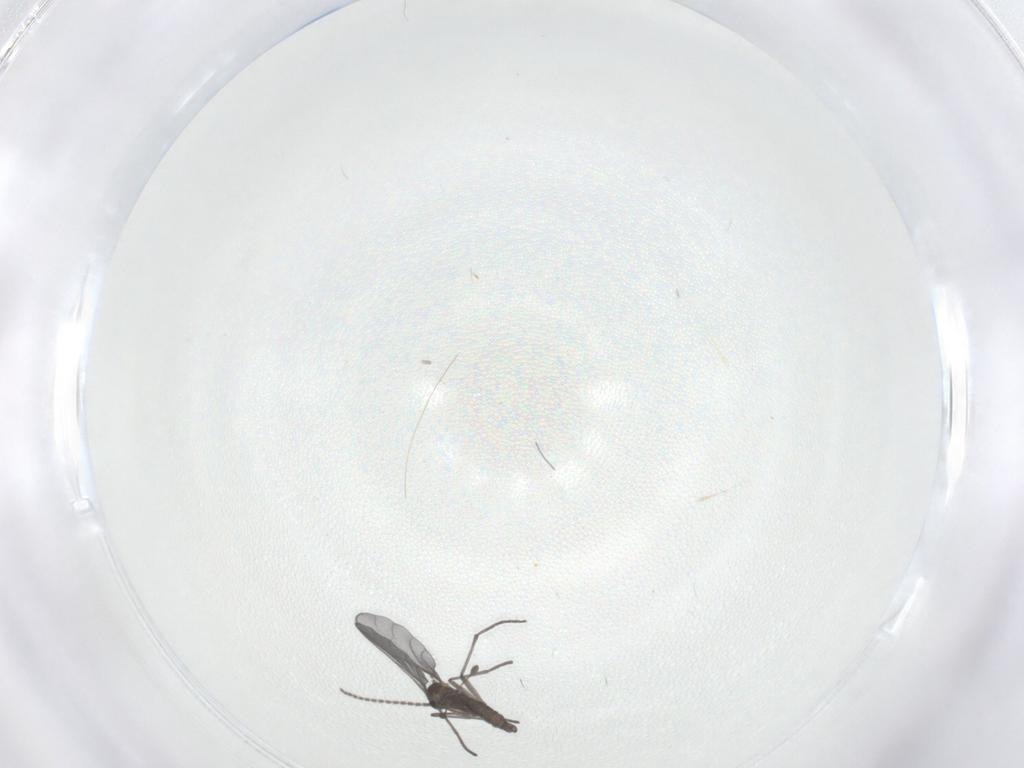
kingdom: Animalia
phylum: Arthropoda
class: Insecta
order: Diptera
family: Sciaridae
